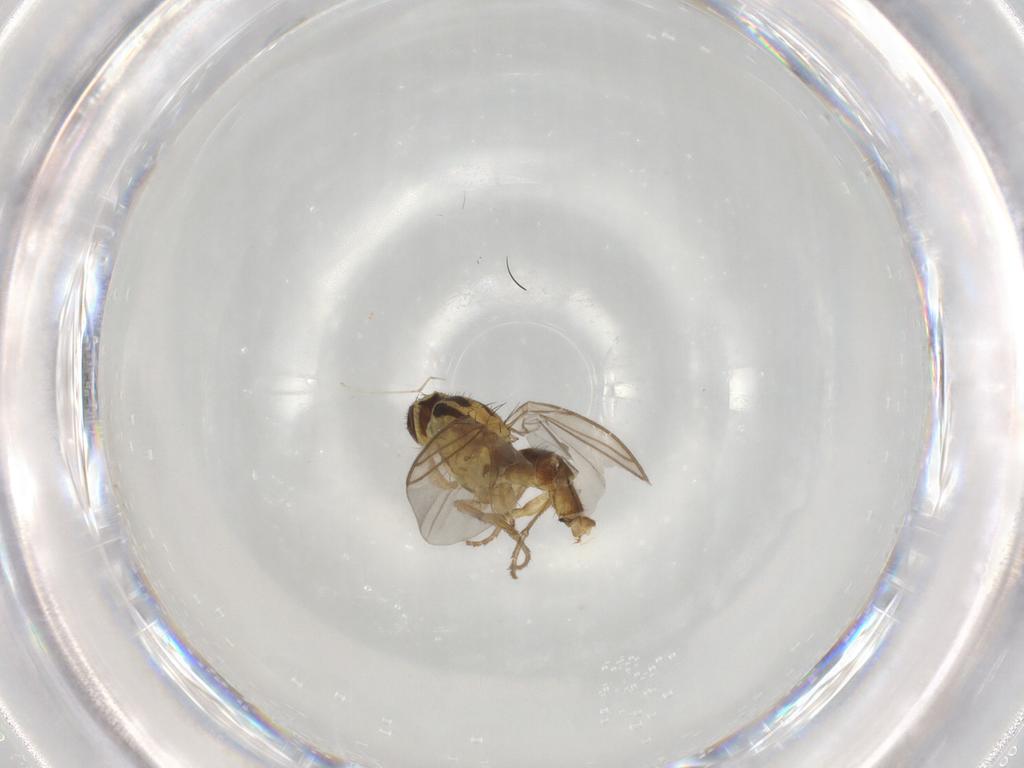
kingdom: Animalia
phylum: Arthropoda
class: Insecta
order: Diptera
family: Agromyzidae
